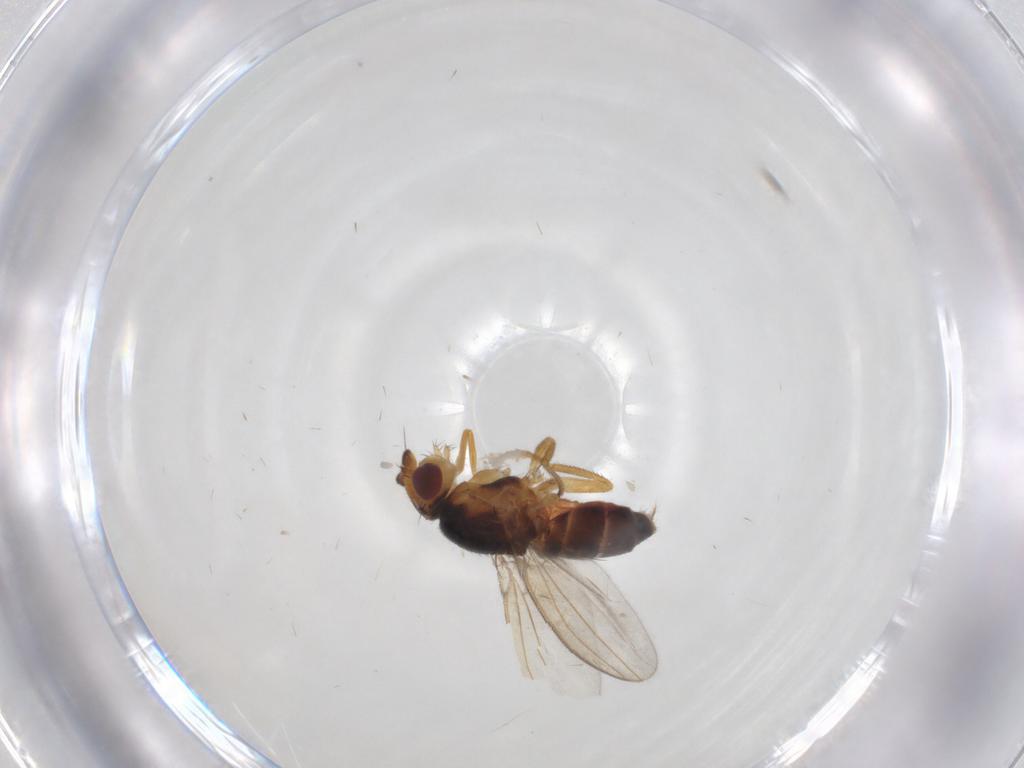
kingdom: Animalia
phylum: Arthropoda
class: Insecta
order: Diptera
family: Milichiidae
